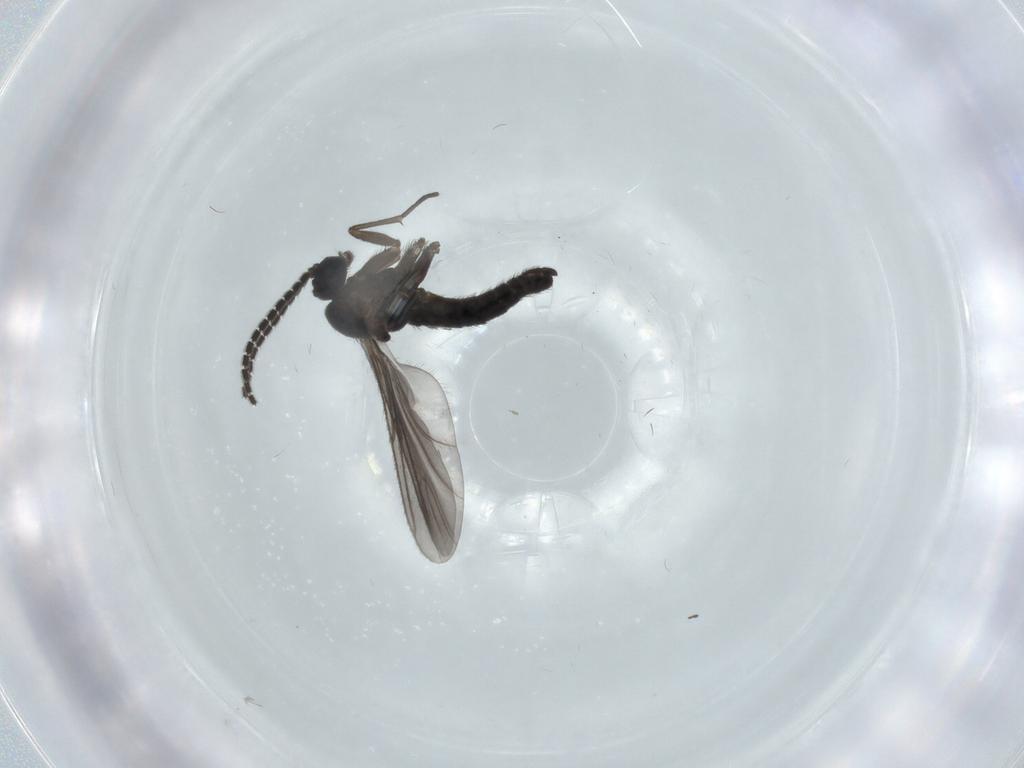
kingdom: Animalia
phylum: Arthropoda
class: Insecta
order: Diptera
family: Sciaridae
